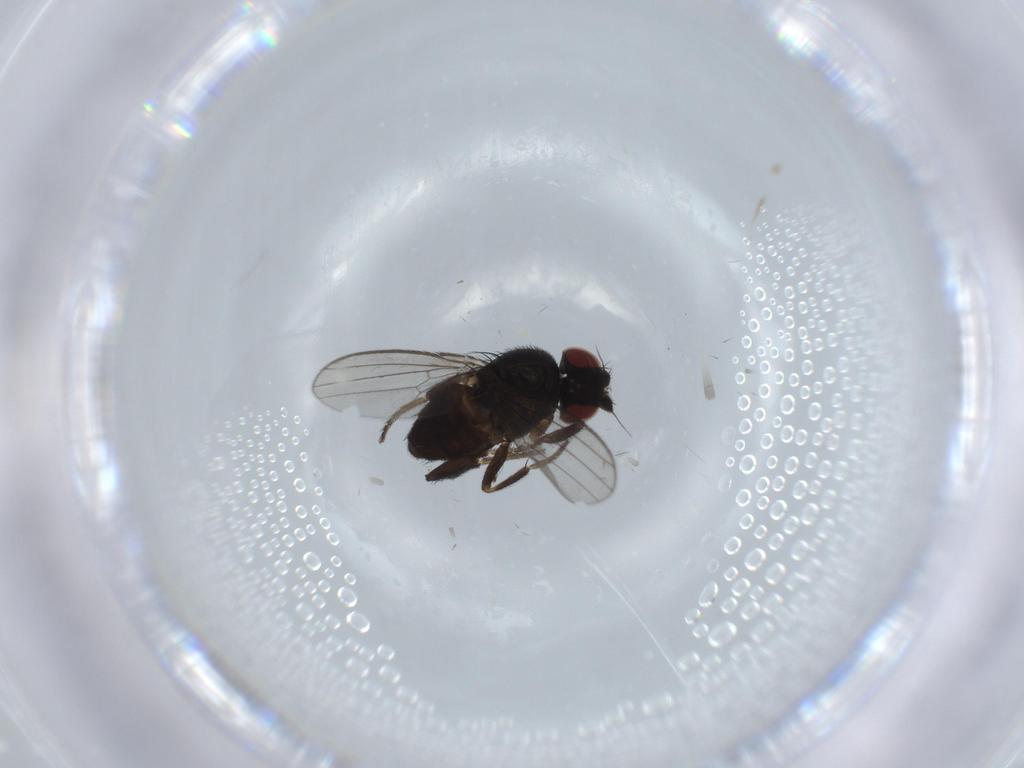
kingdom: Animalia
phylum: Arthropoda
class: Insecta
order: Diptera
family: Milichiidae
